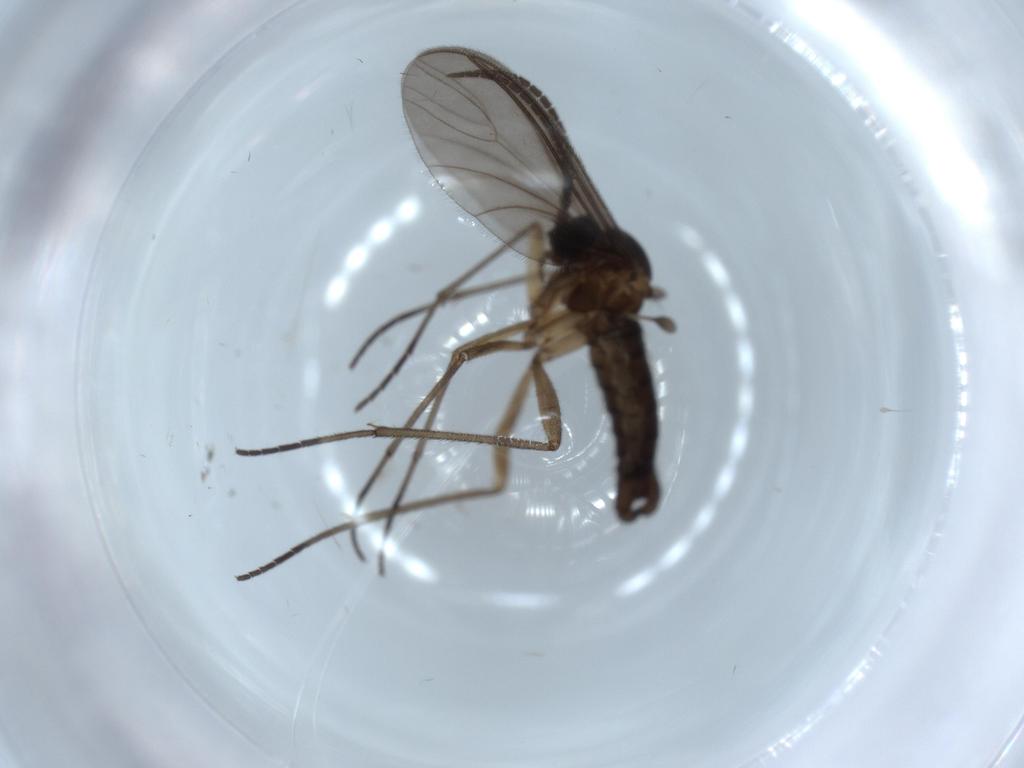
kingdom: Animalia
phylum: Arthropoda
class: Insecta
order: Diptera
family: Sciaridae
